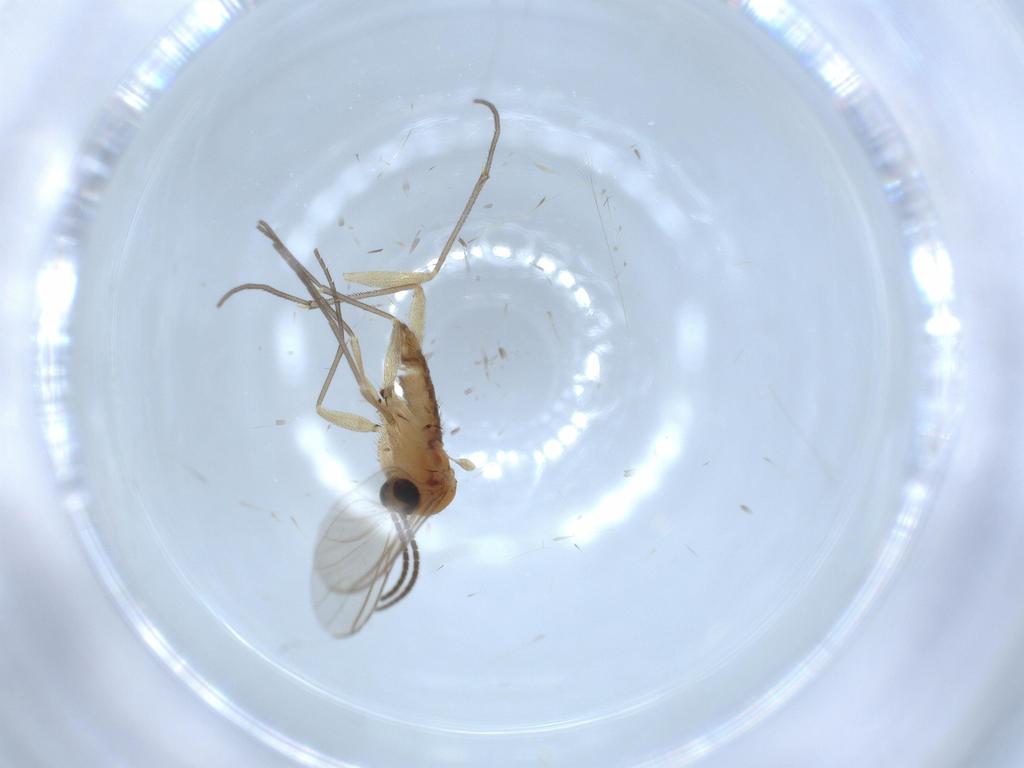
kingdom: Animalia
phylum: Arthropoda
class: Insecta
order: Diptera
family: Sciaridae
